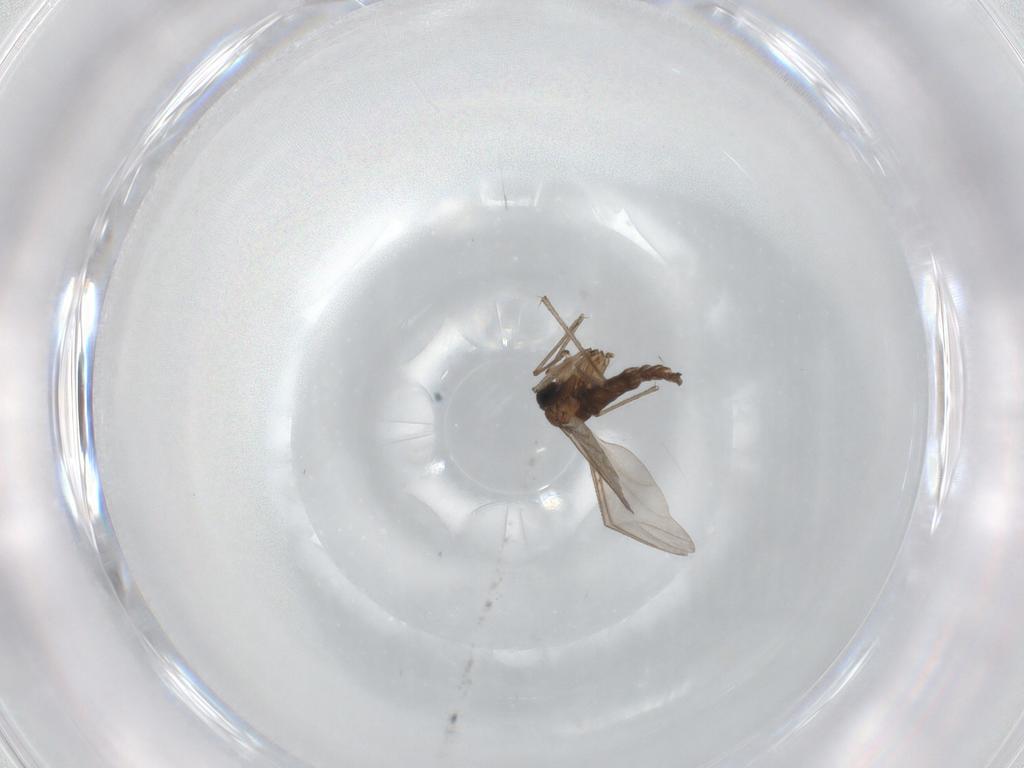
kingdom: Animalia
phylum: Arthropoda
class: Insecta
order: Diptera
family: Sciaridae
